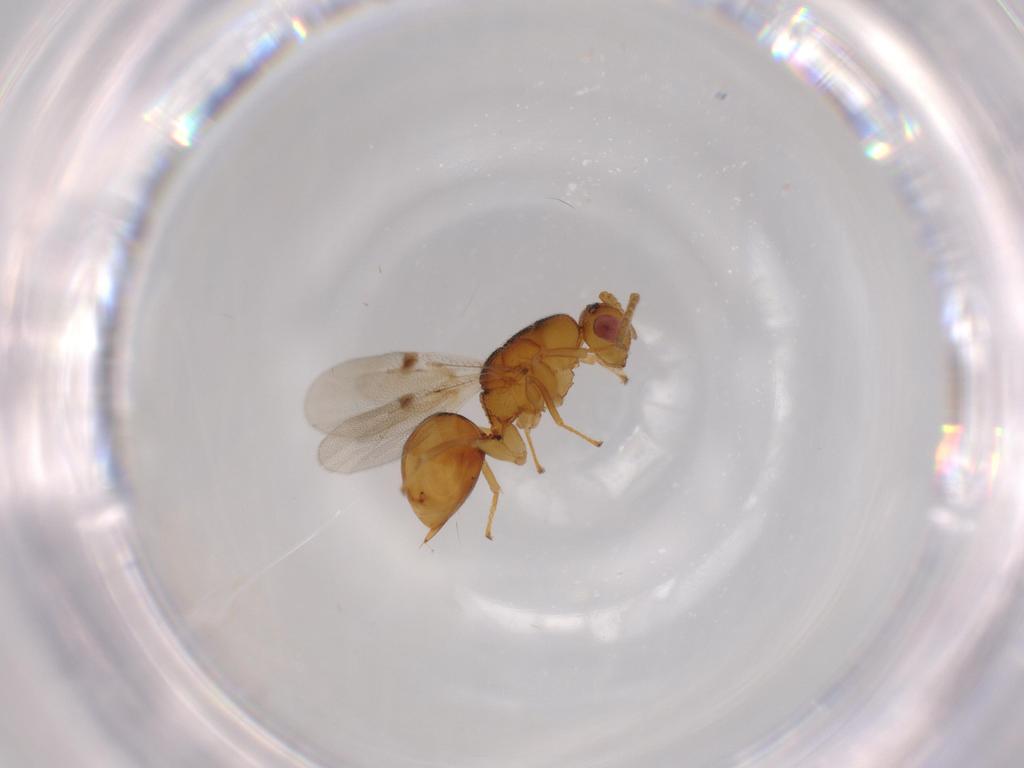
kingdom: Animalia
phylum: Arthropoda
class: Insecta
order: Hymenoptera
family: Eurytomidae
